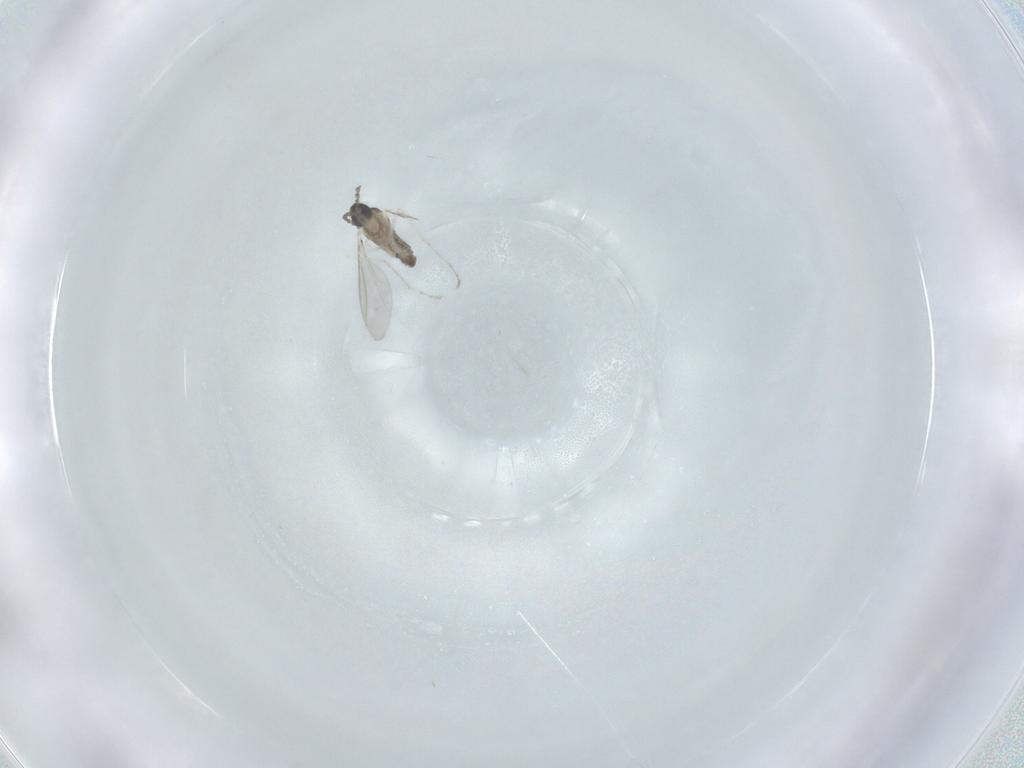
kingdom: Animalia
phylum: Arthropoda
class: Insecta
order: Diptera
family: Cecidomyiidae
